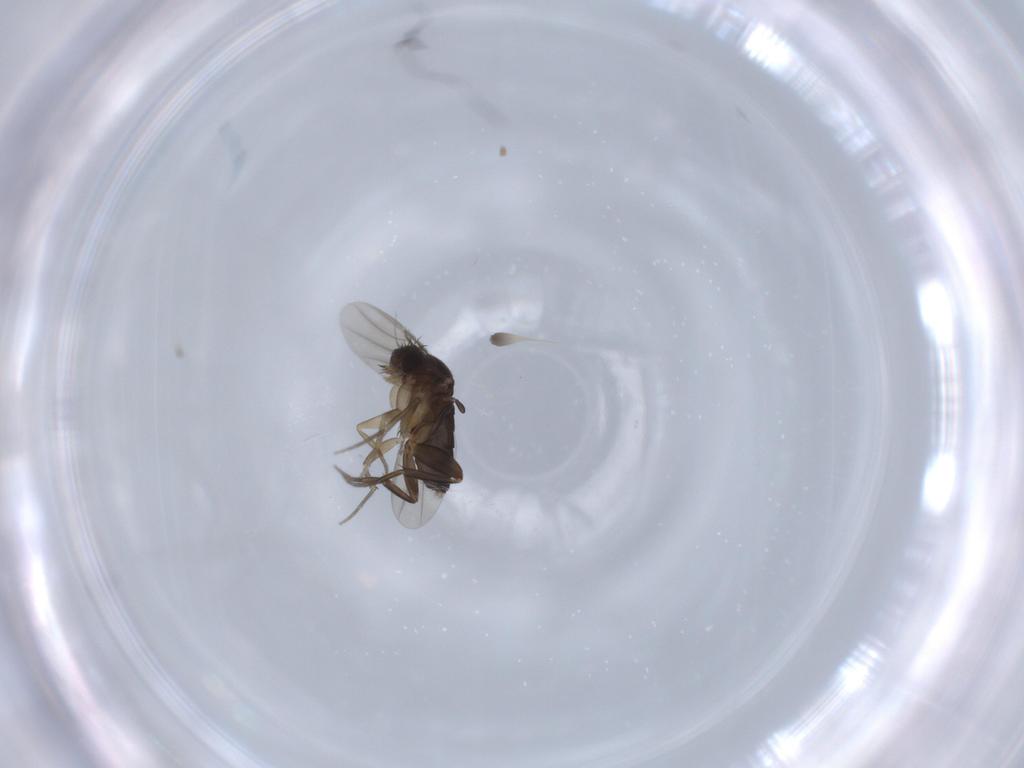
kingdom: Animalia
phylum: Arthropoda
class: Insecta
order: Diptera
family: Phoridae
